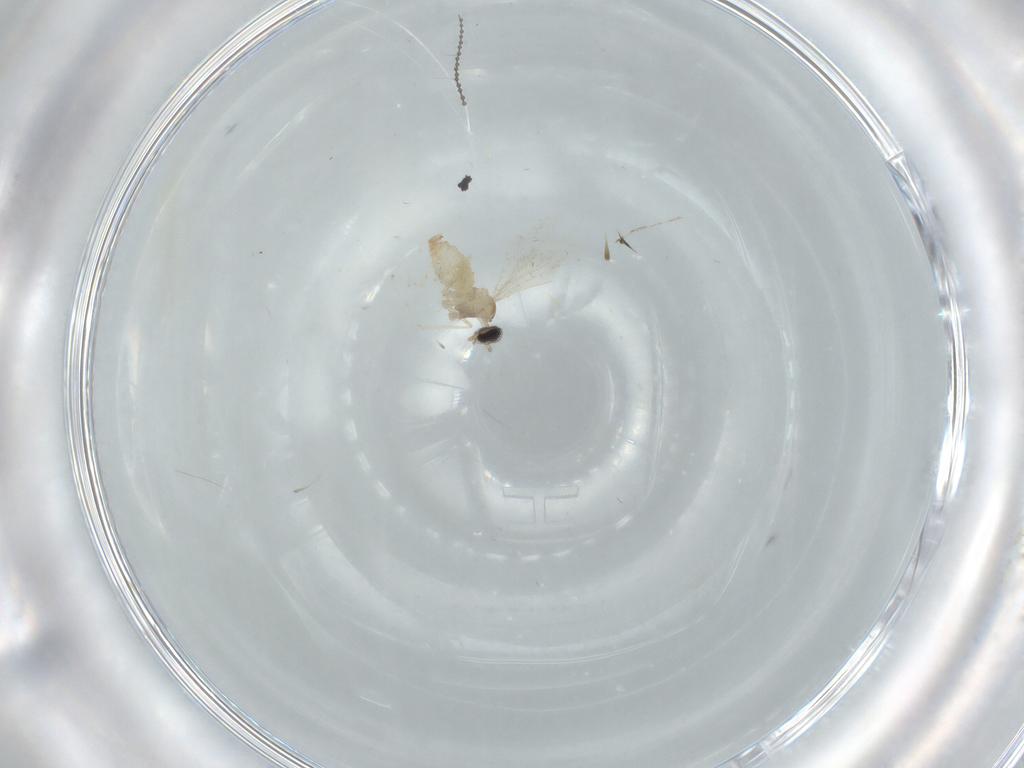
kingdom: Animalia
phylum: Arthropoda
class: Insecta
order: Diptera
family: Cecidomyiidae
